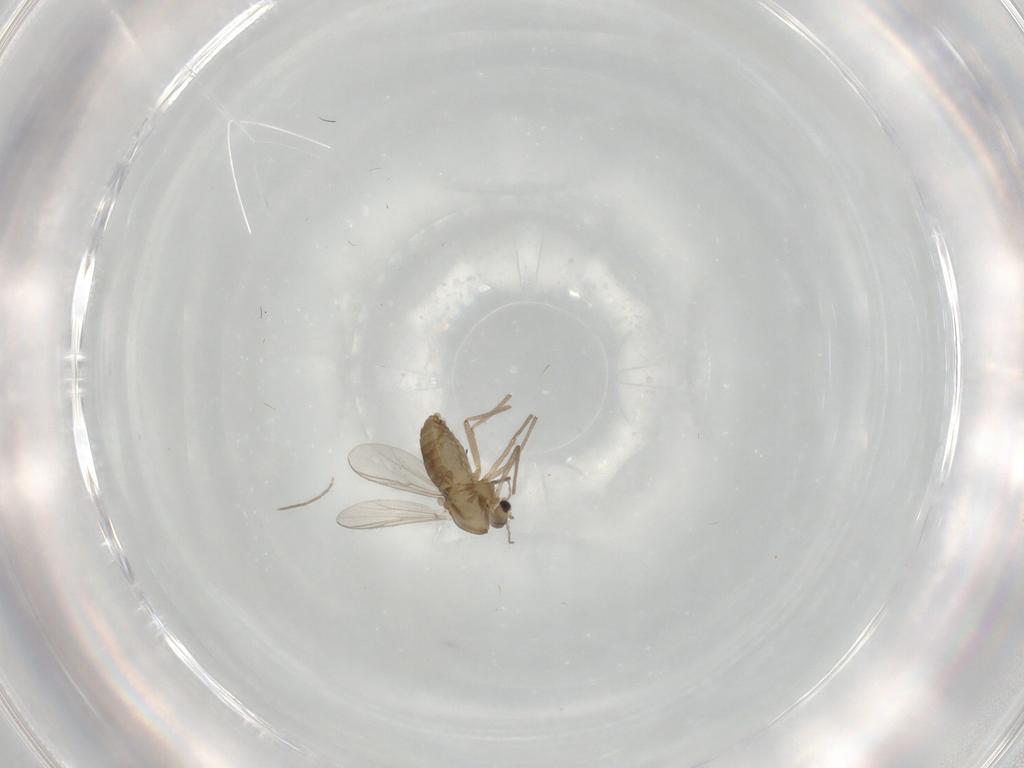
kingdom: Animalia
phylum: Arthropoda
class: Insecta
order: Diptera
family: Chironomidae
